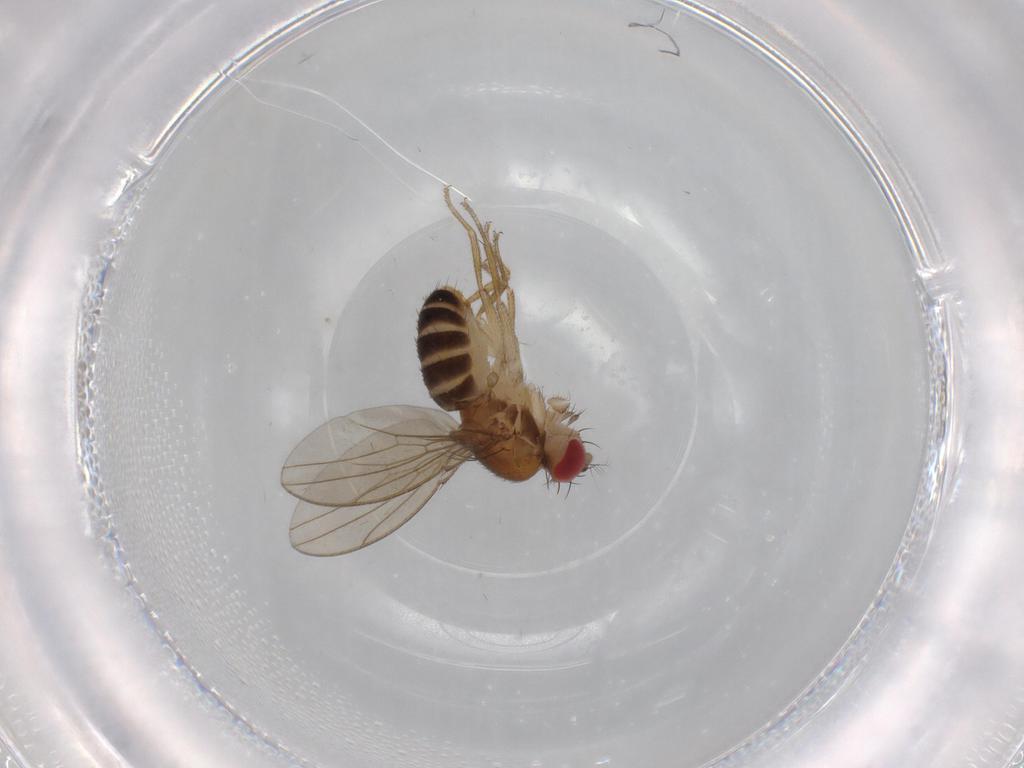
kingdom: Animalia
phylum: Arthropoda
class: Insecta
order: Diptera
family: Drosophilidae
